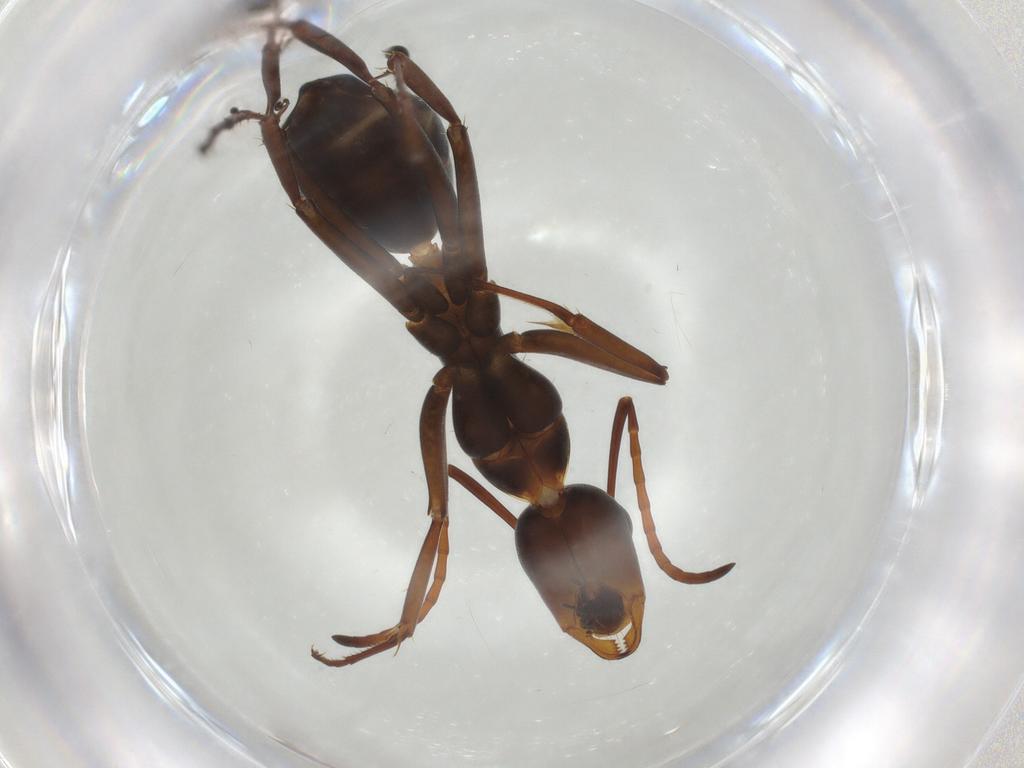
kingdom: Animalia
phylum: Arthropoda
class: Insecta
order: Hymenoptera
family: Formicidae
